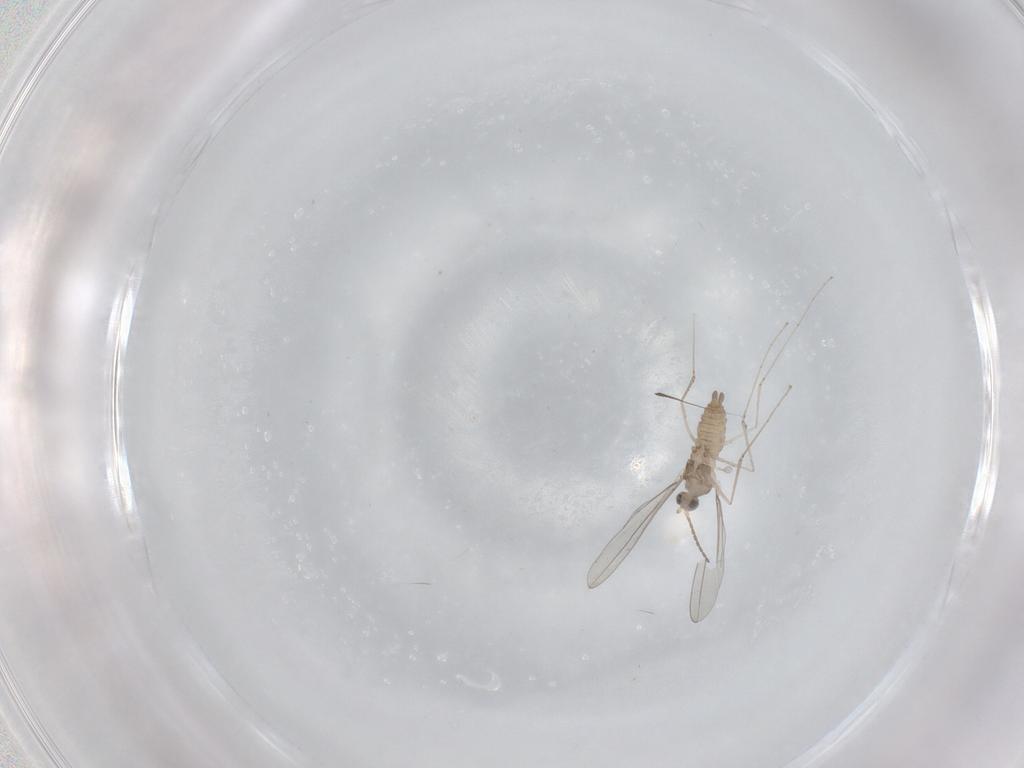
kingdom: Animalia
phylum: Arthropoda
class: Insecta
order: Diptera
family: Cecidomyiidae
